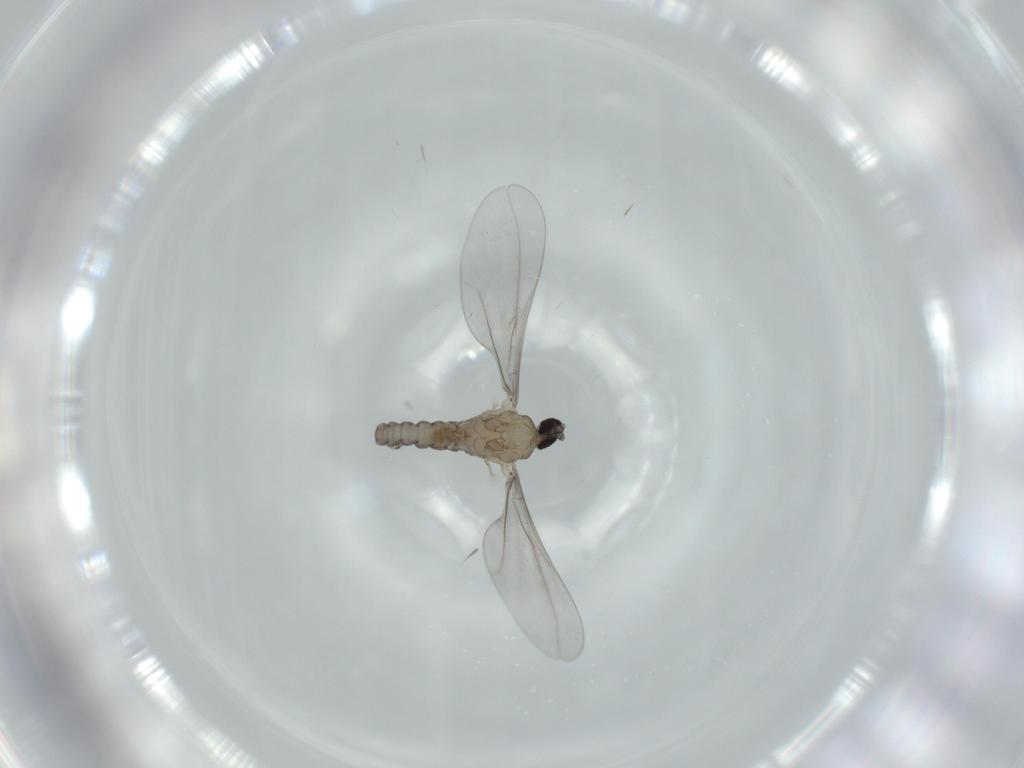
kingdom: Animalia
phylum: Arthropoda
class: Insecta
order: Diptera
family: Cecidomyiidae
